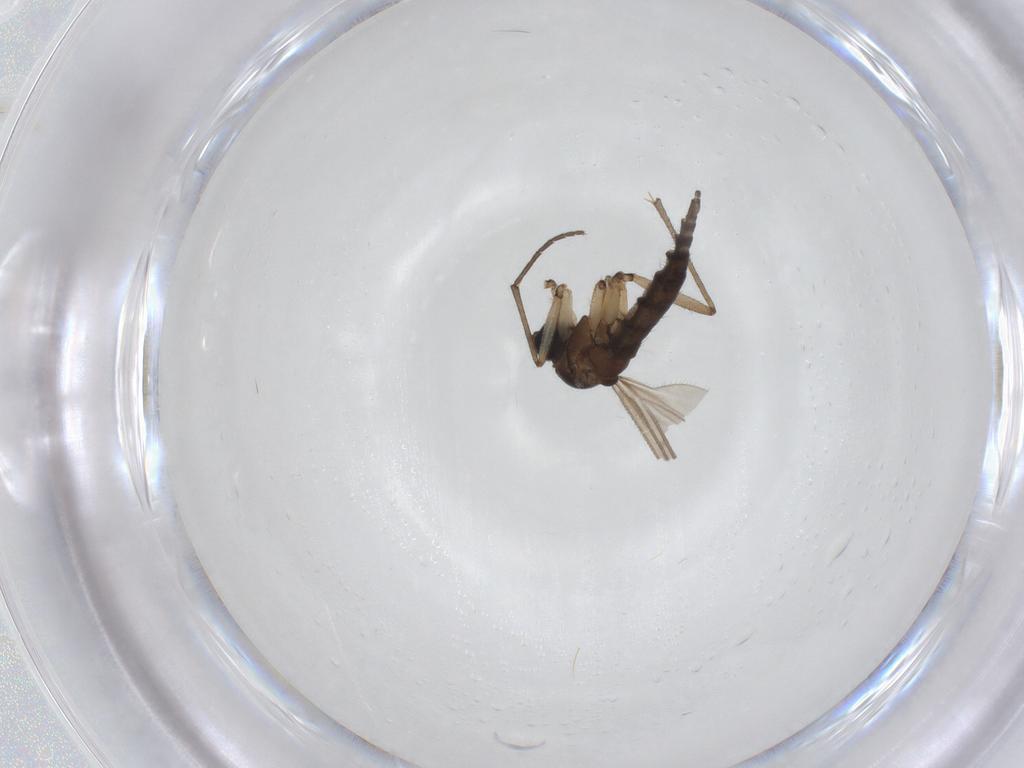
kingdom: Animalia
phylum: Arthropoda
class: Insecta
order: Diptera
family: Sciaridae
